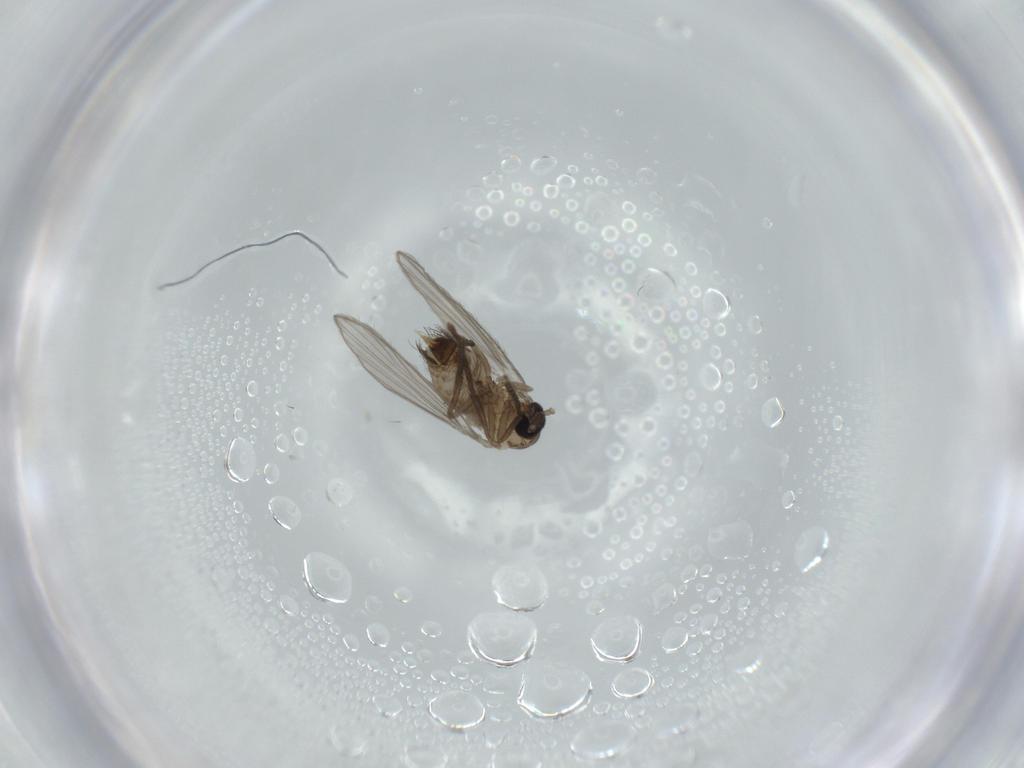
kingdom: Animalia
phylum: Arthropoda
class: Insecta
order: Diptera
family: Psychodidae
